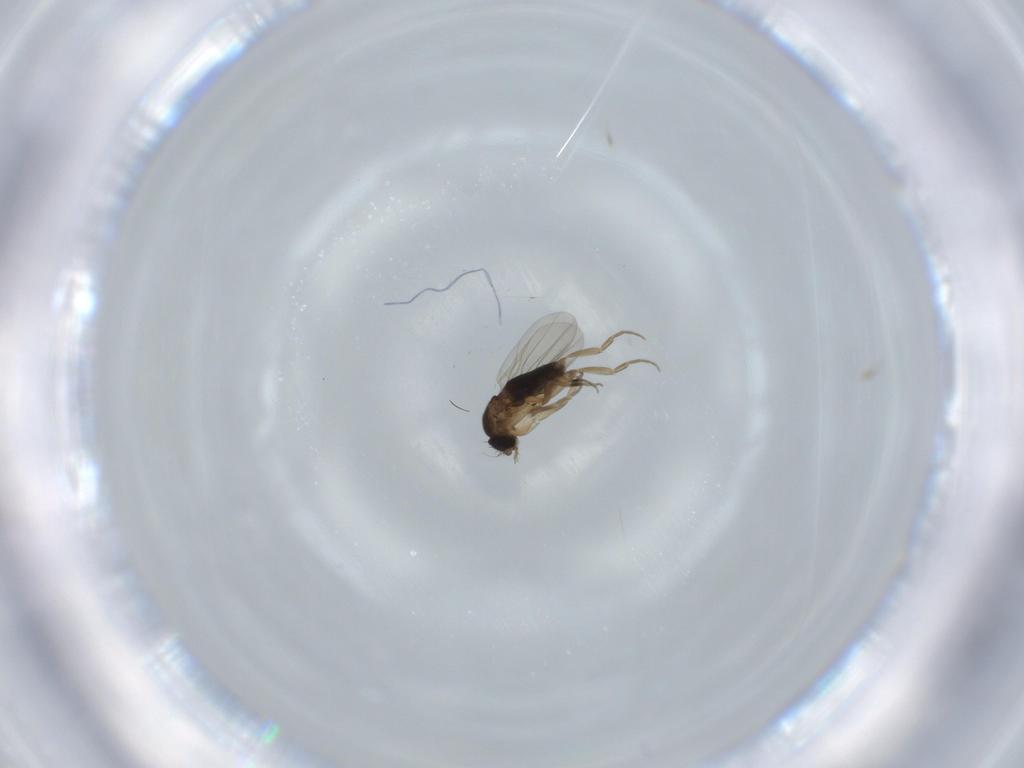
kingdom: Animalia
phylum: Arthropoda
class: Insecta
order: Diptera
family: Phoridae
